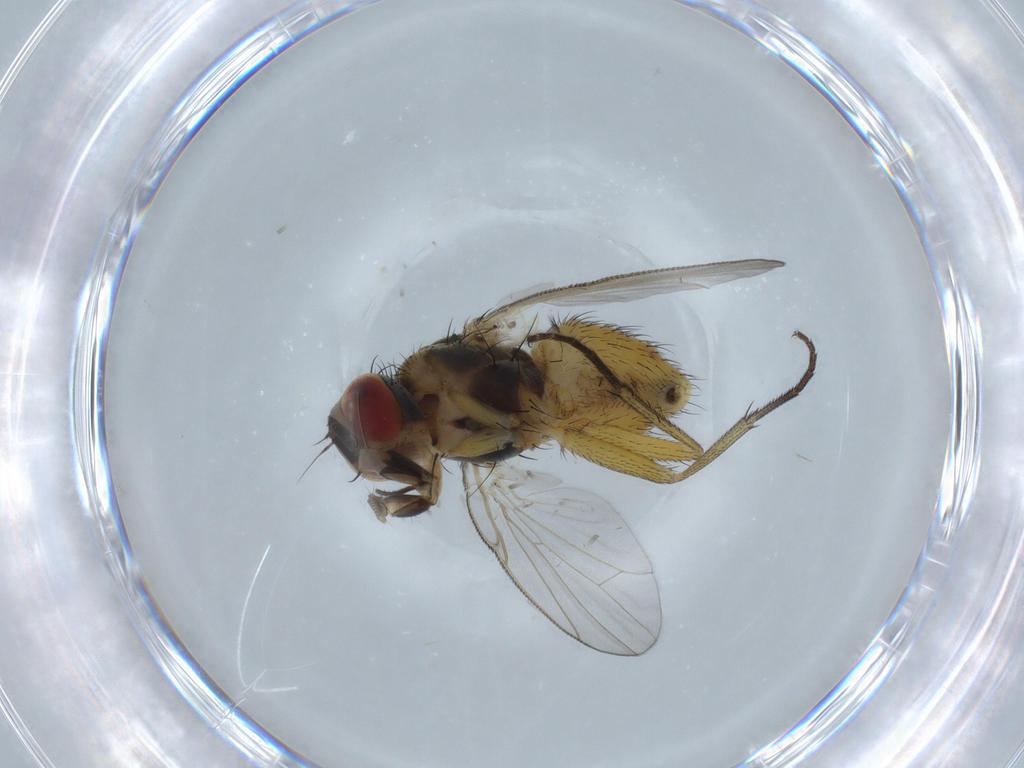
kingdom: Animalia
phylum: Arthropoda
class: Insecta
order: Diptera
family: Muscidae
